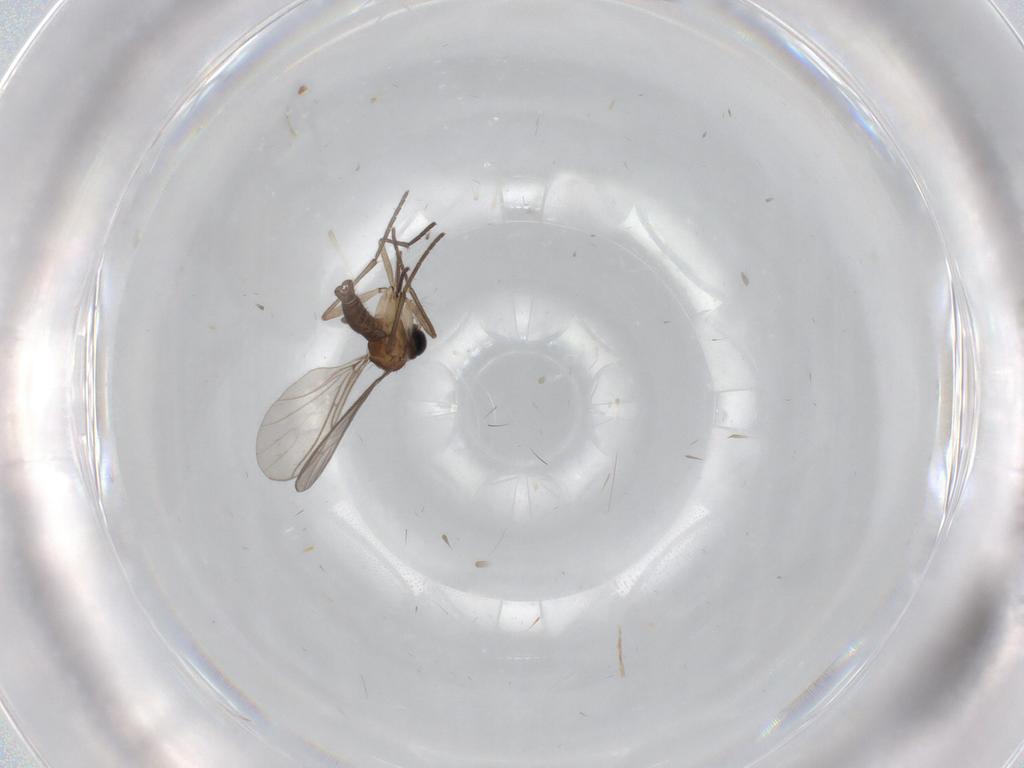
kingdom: Animalia
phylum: Arthropoda
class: Insecta
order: Diptera
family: Sciaridae
